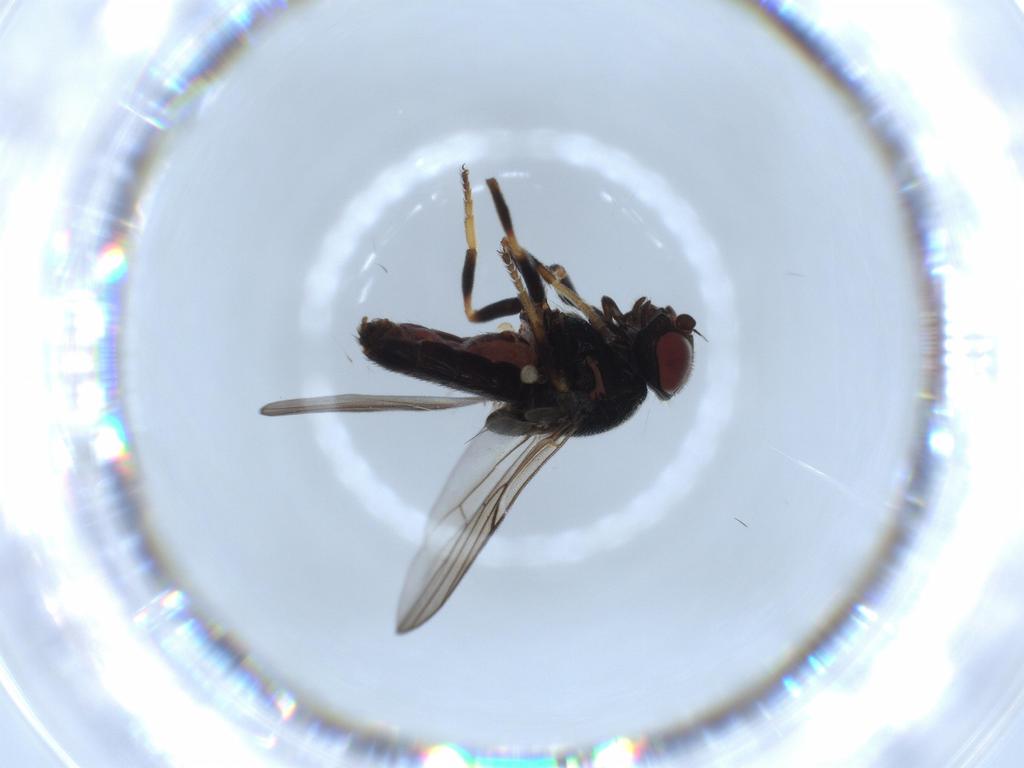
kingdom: Animalia
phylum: Arthropoda
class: Insecta
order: Diptera
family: Chloropidae
